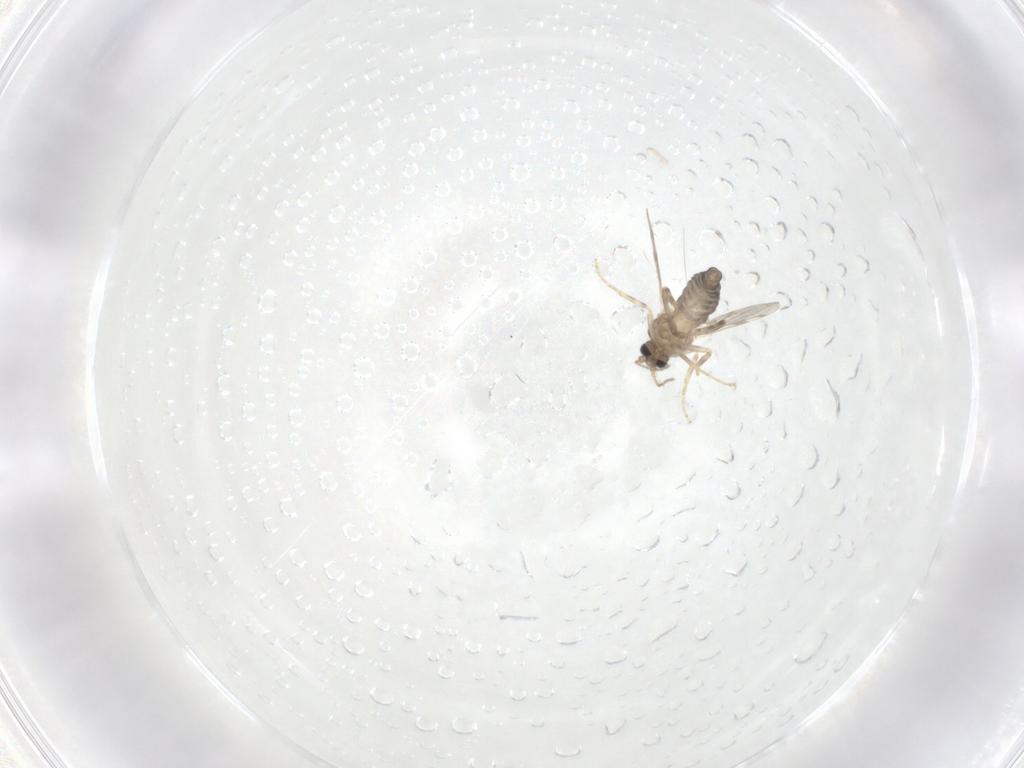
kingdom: Animalia
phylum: Arthropoda
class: Insecta
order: Diptera
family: Ceratopogonidae
